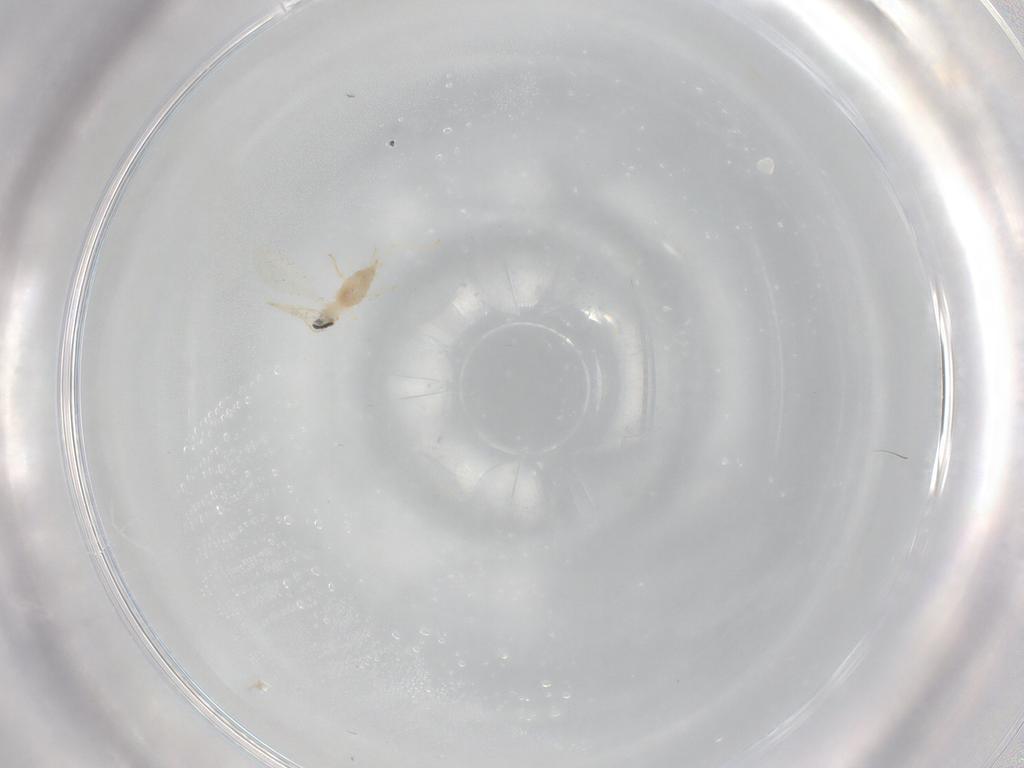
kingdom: Animalia
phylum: Arthropoda
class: Insecta
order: Diptera
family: Cecidomyiidae
